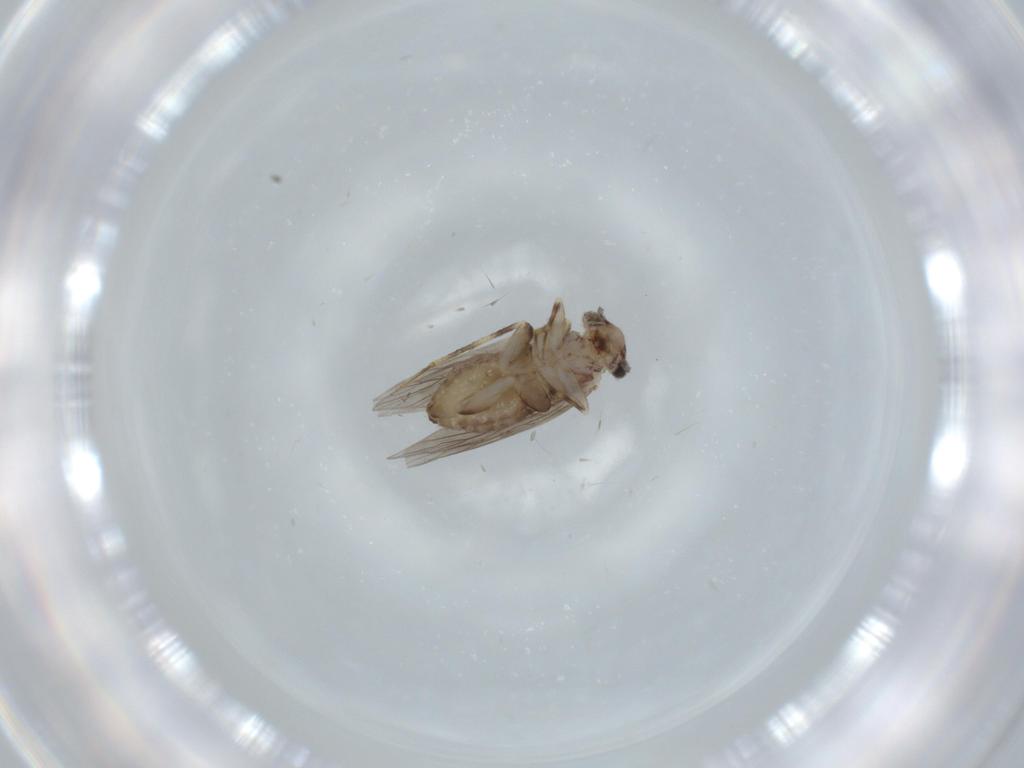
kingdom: Animalia
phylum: Arthropoda
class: Insecta
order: Psocodea
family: Lepidopsocidae
